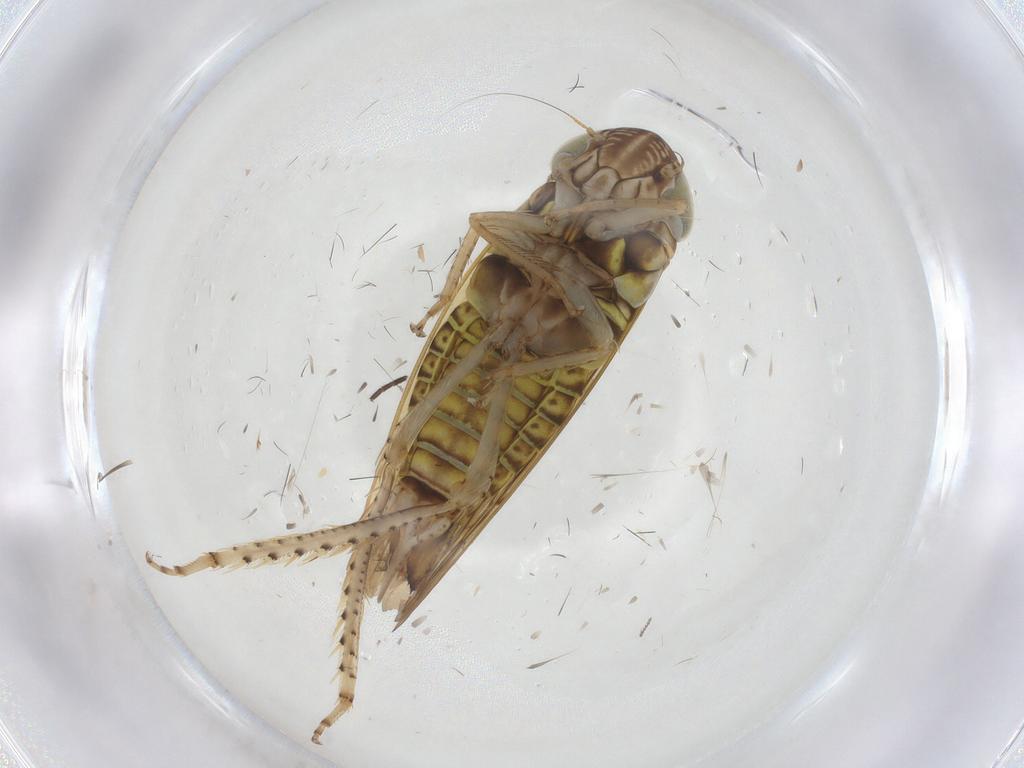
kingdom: Animalia
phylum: Arthropoda
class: Insecta
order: Hemiptera
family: Cicadellidae
